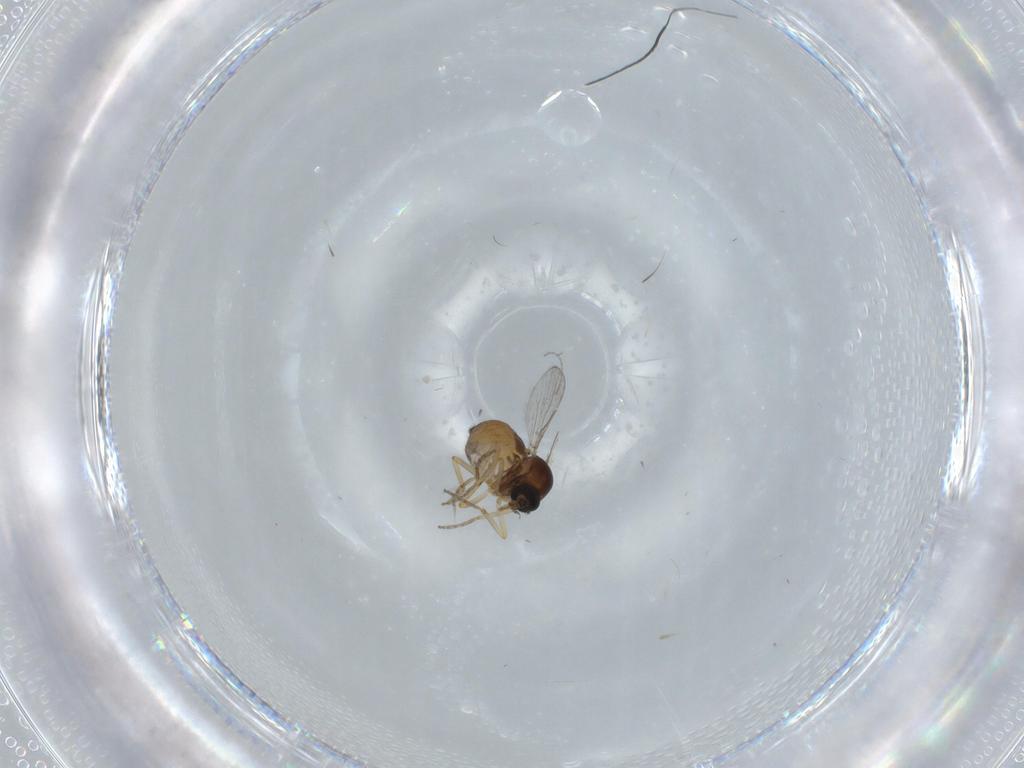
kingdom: Animalia
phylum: Arthropoda
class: Insecta
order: Diptera
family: Ceratopogonidae
